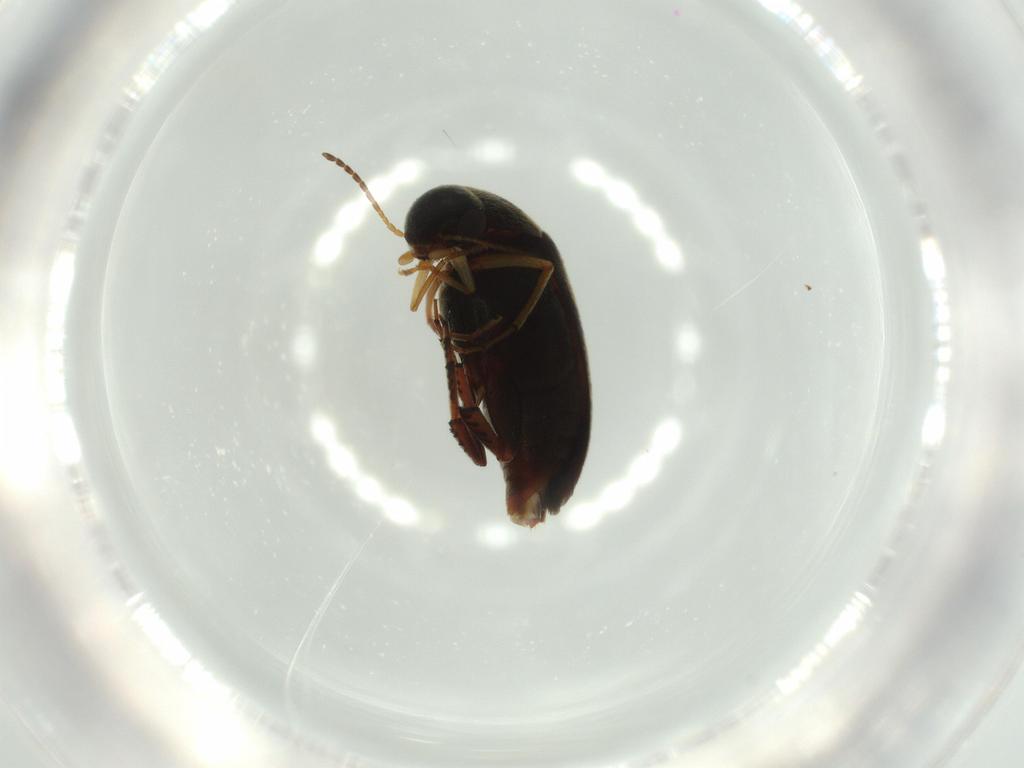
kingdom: Animalia
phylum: Arthropoda
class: Insecta
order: Coleoptera
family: Mordellidae
